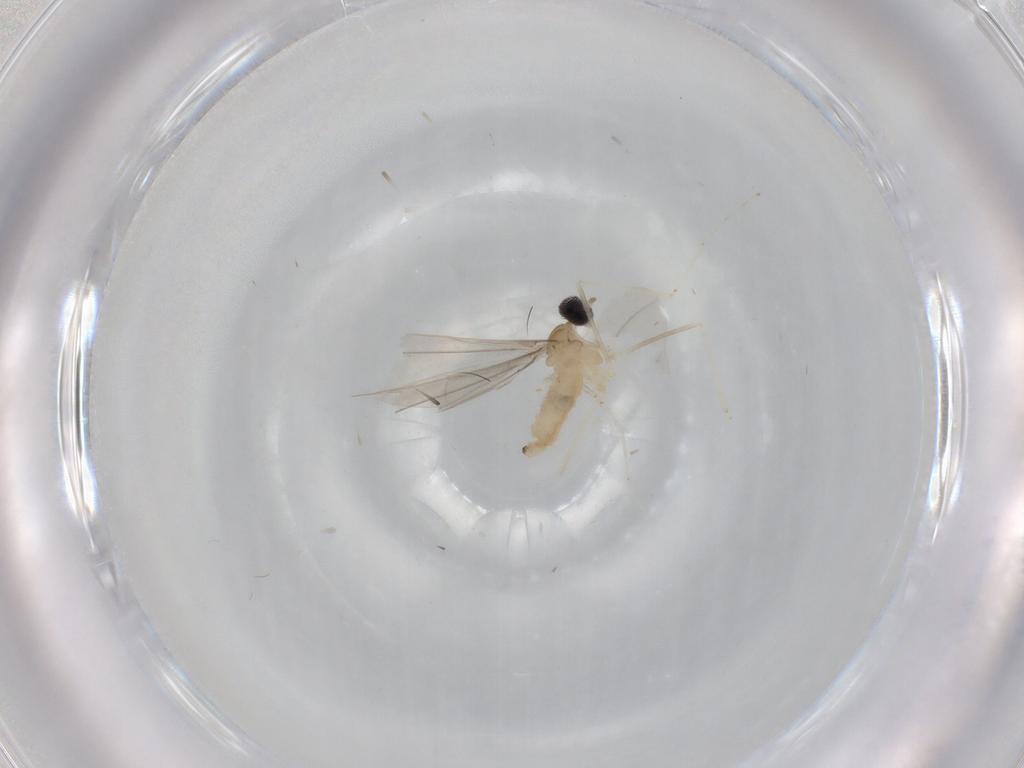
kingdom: Animalia
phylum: Arthropoda
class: Insecta
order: Diptera
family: Cecidomyiidae
